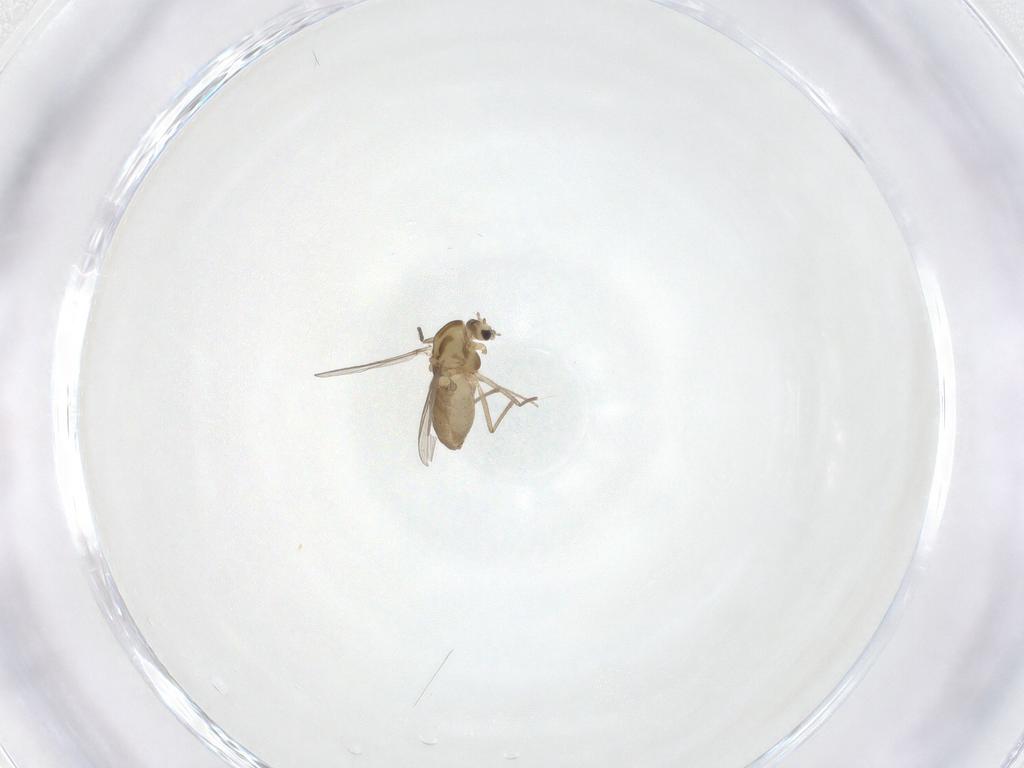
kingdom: Animalia
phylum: Arthropoda
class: Insecta
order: Diptera
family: Chironomidae
